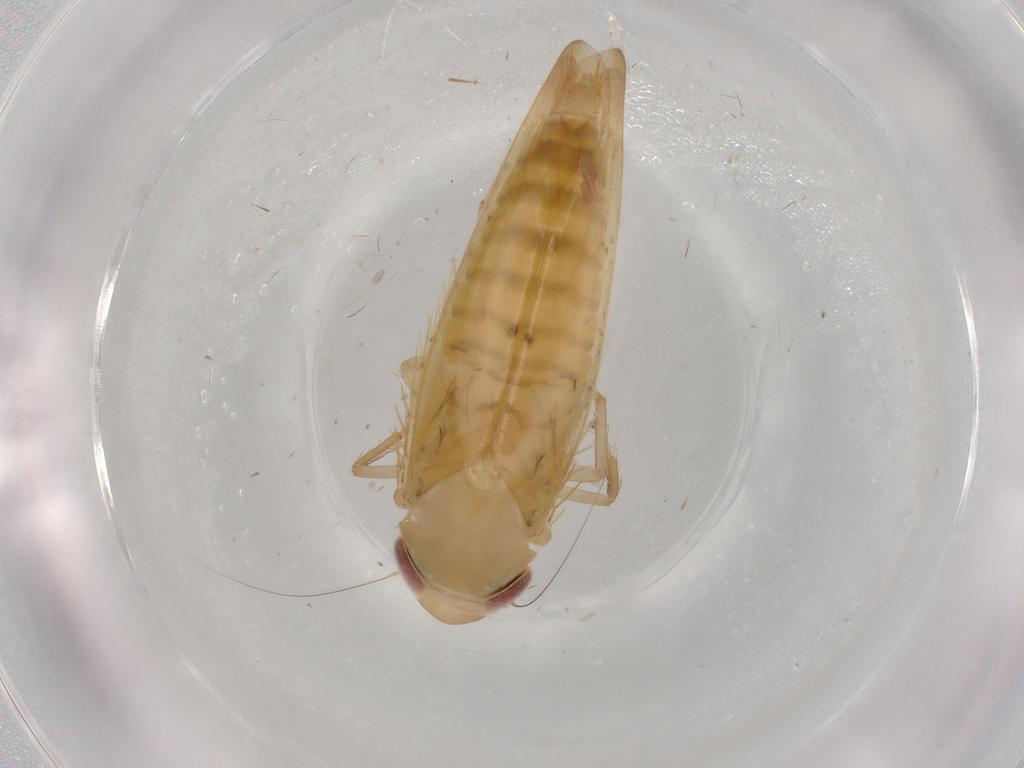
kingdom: Animalia
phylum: Arthropoda
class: Insecta
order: Hemiptera
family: Cicadellidae
